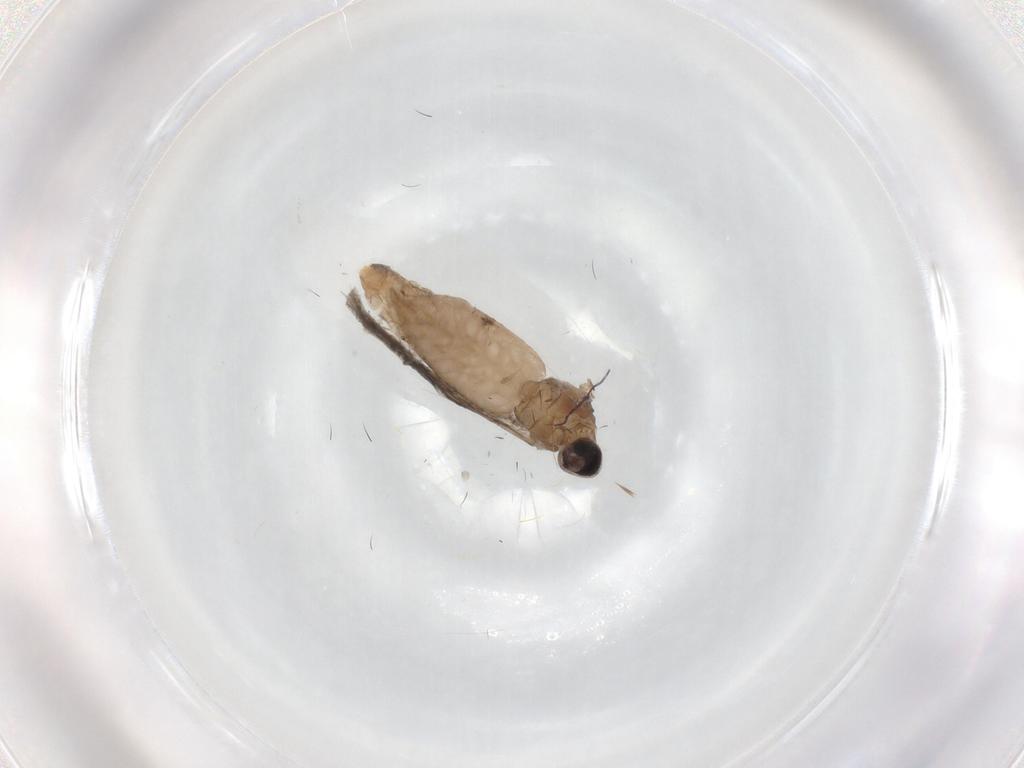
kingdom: Animalia
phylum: Arthropoda
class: Insecta
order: Diptera
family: Cecidomyiidae
